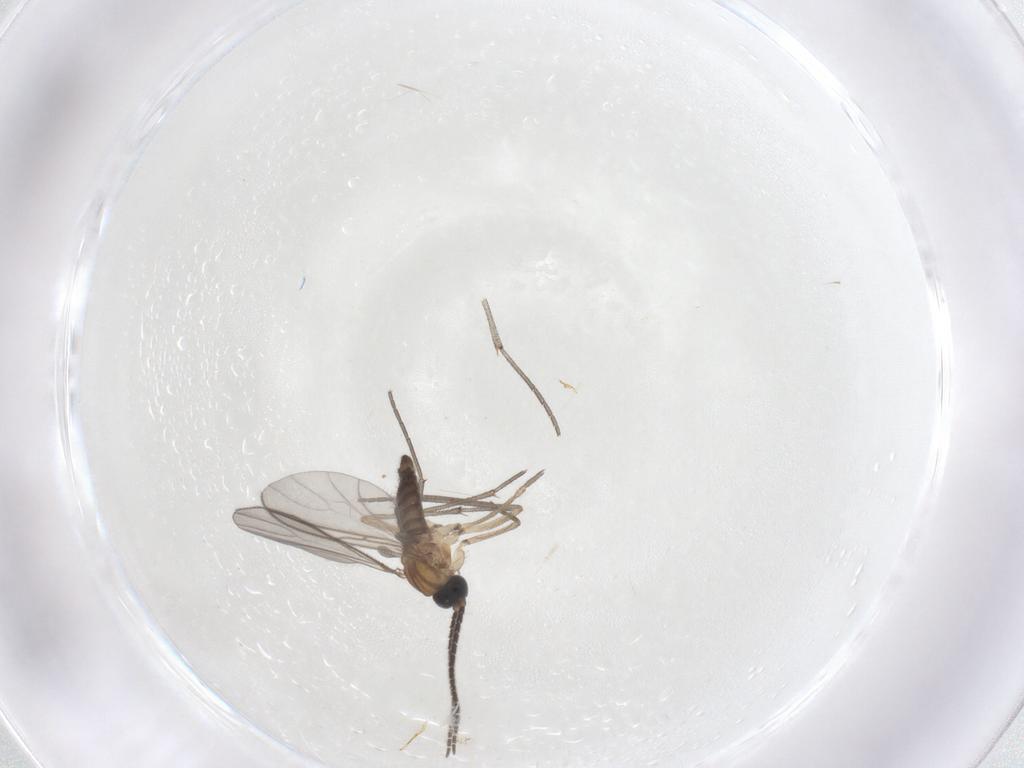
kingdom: Animalia
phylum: Arthropoda
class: Insecta
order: Diptera
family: Sciaridae
